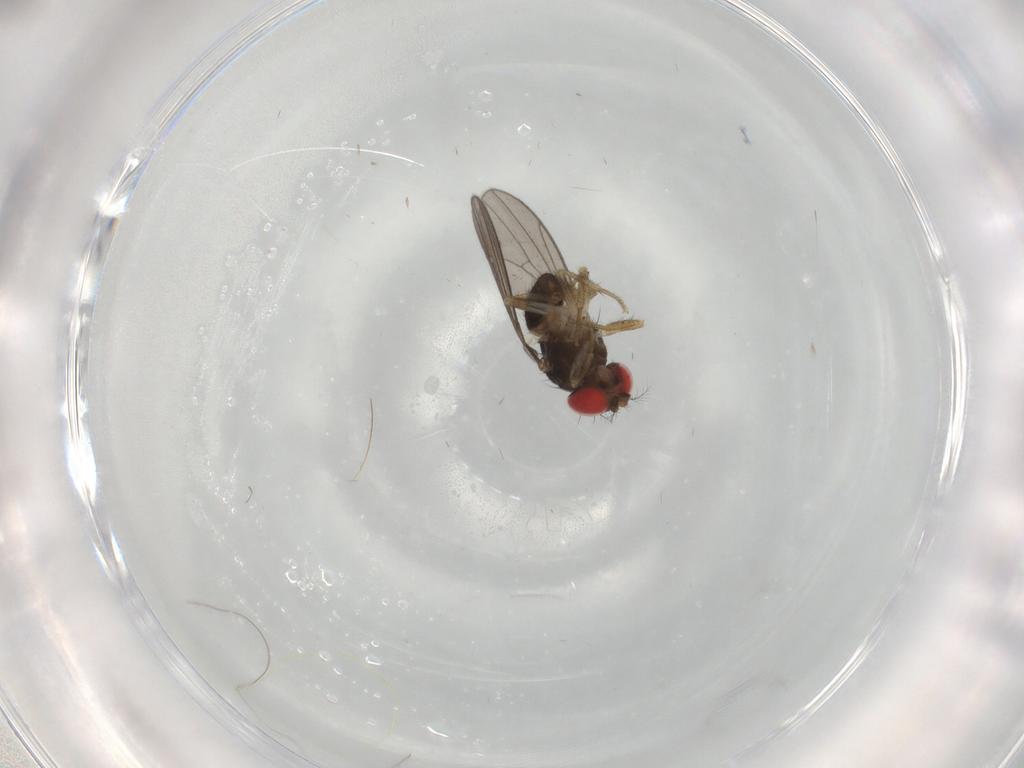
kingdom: Animalia
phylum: Arthropoda
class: Insecta
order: Diptera
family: Drosophilidae
